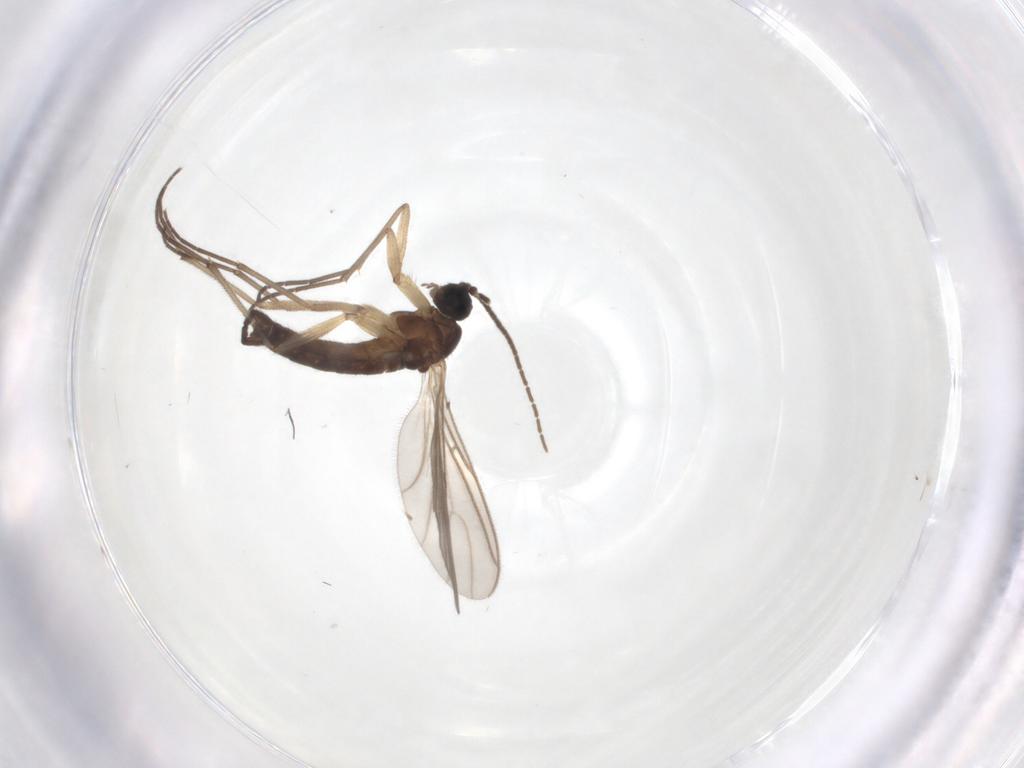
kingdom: Animalia
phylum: Arthropoda
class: Insecta
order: Diptera
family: Sciaridae
